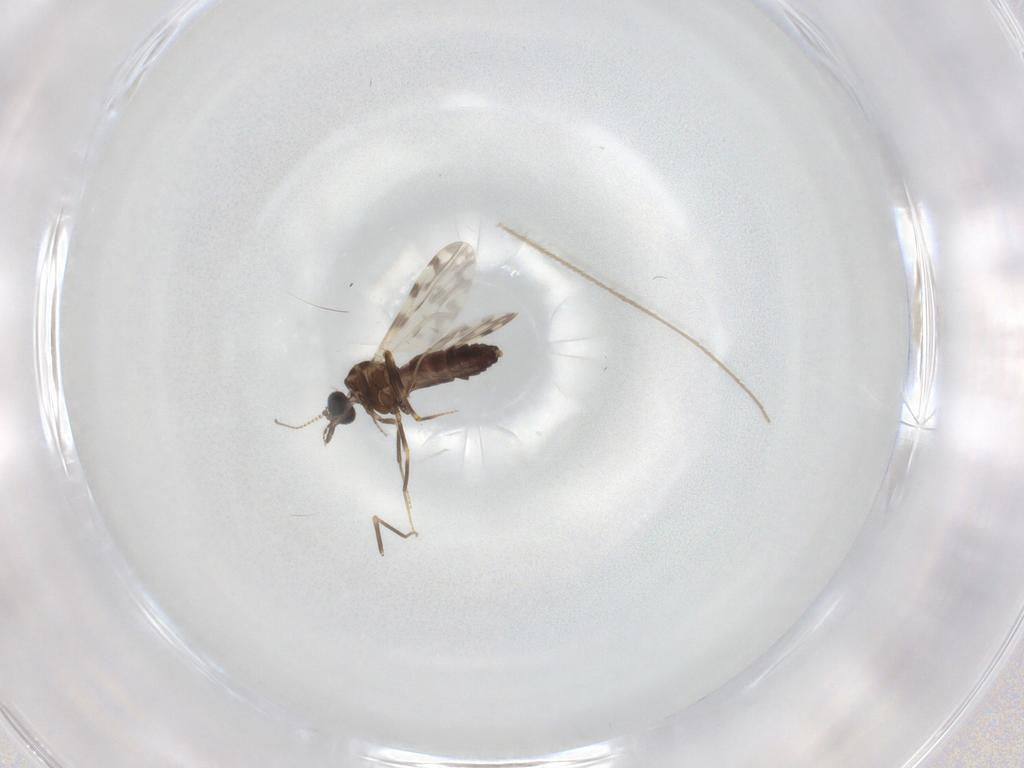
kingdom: Animalia
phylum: Arthropoda
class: Insecta
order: Diptera
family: Ceratopogonidae
